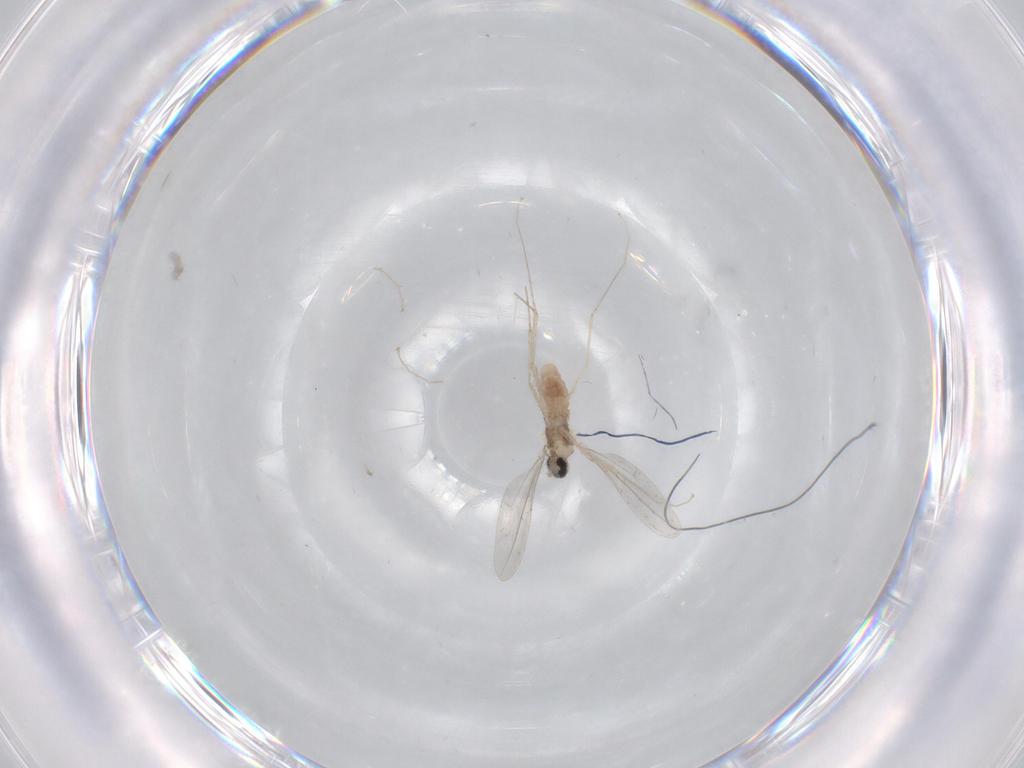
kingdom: Animalia
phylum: Arthropoda
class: Insecta
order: Diptera
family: Cecidomyiidae
